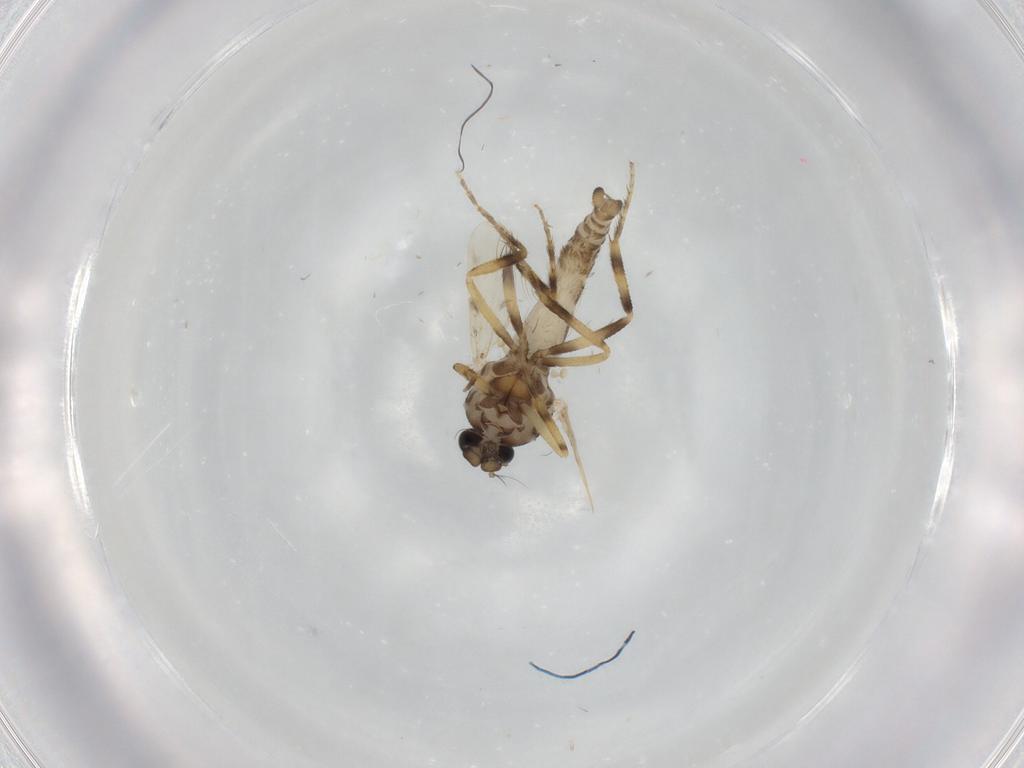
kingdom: Animalia
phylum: Arthropoda
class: Insecta
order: Diptera
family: Ceratopogonidae
